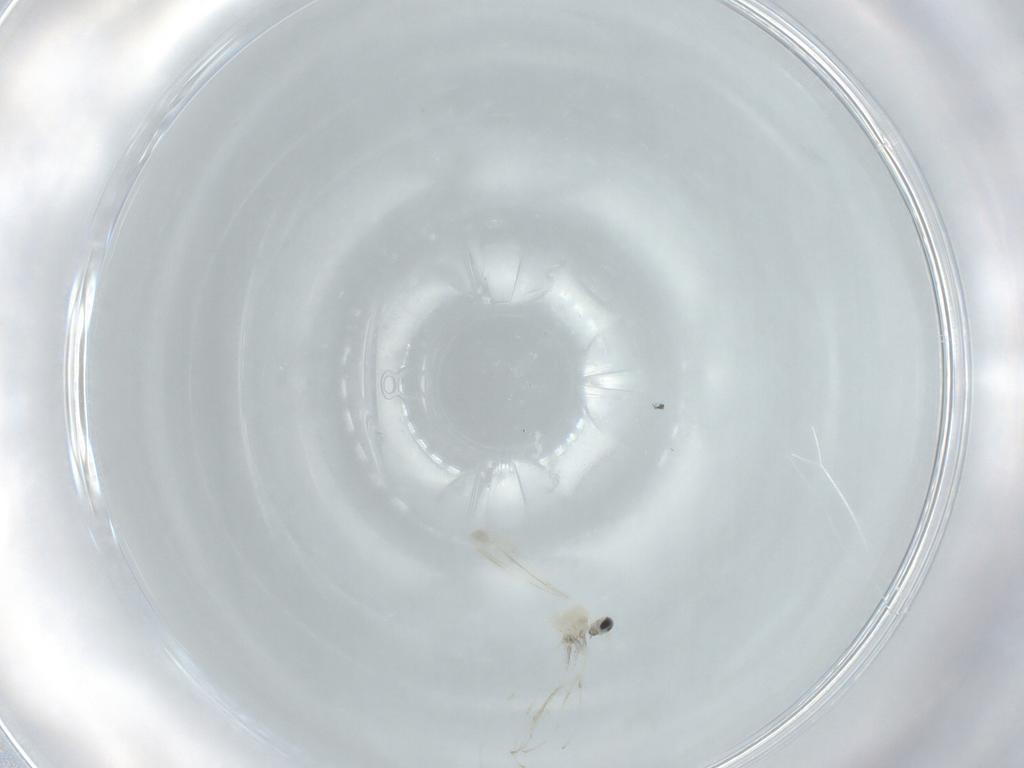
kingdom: Animalia
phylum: Arthropoda
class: Insecta
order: Diptera
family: Cecidomyiidae
